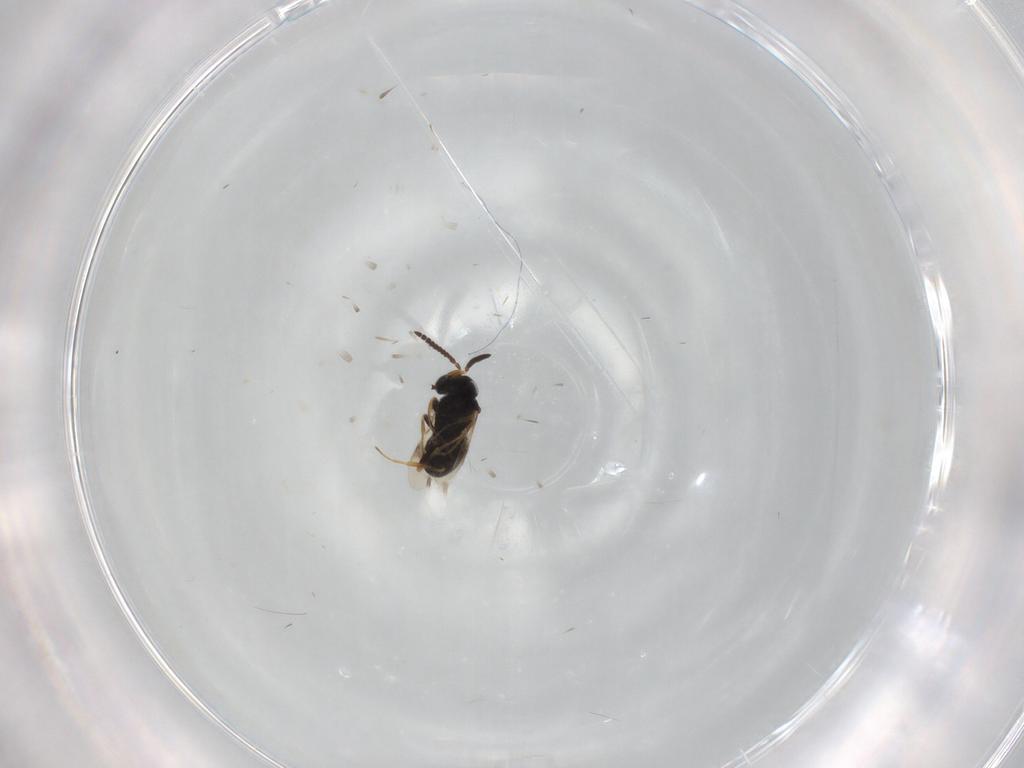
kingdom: Animalia
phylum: Arthropoda
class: Insecta
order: Hymenoptera
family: Scelionidae
